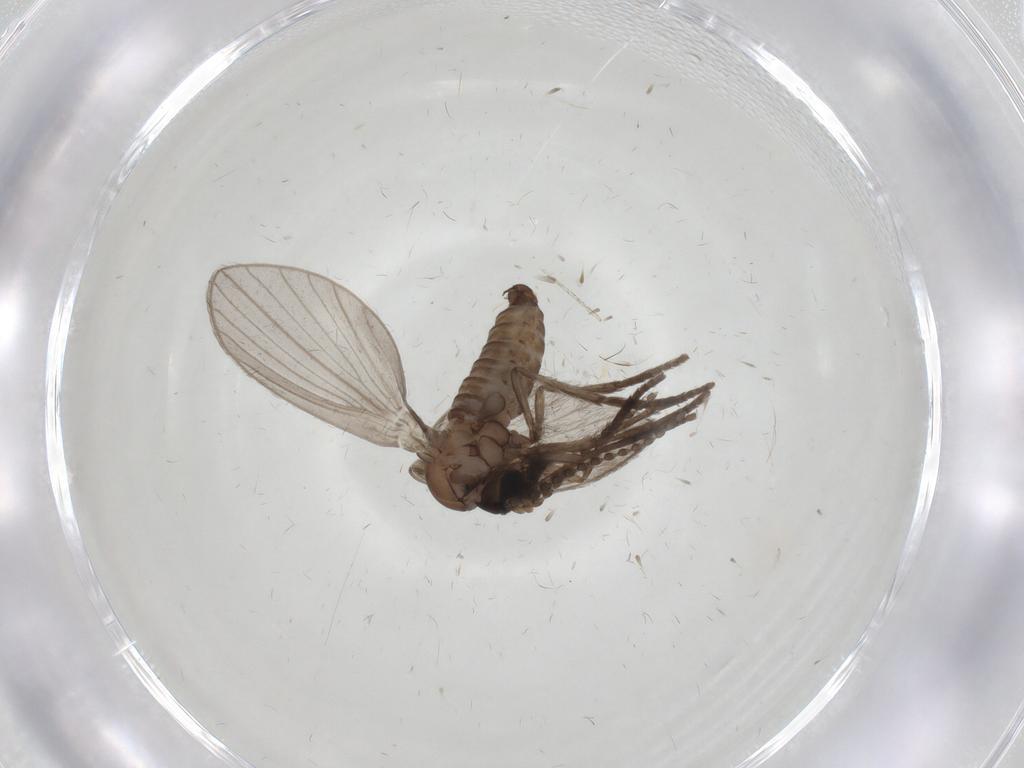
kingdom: Animalia
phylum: Arthropoda
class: Insecta
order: Diptera
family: Psychodidae
